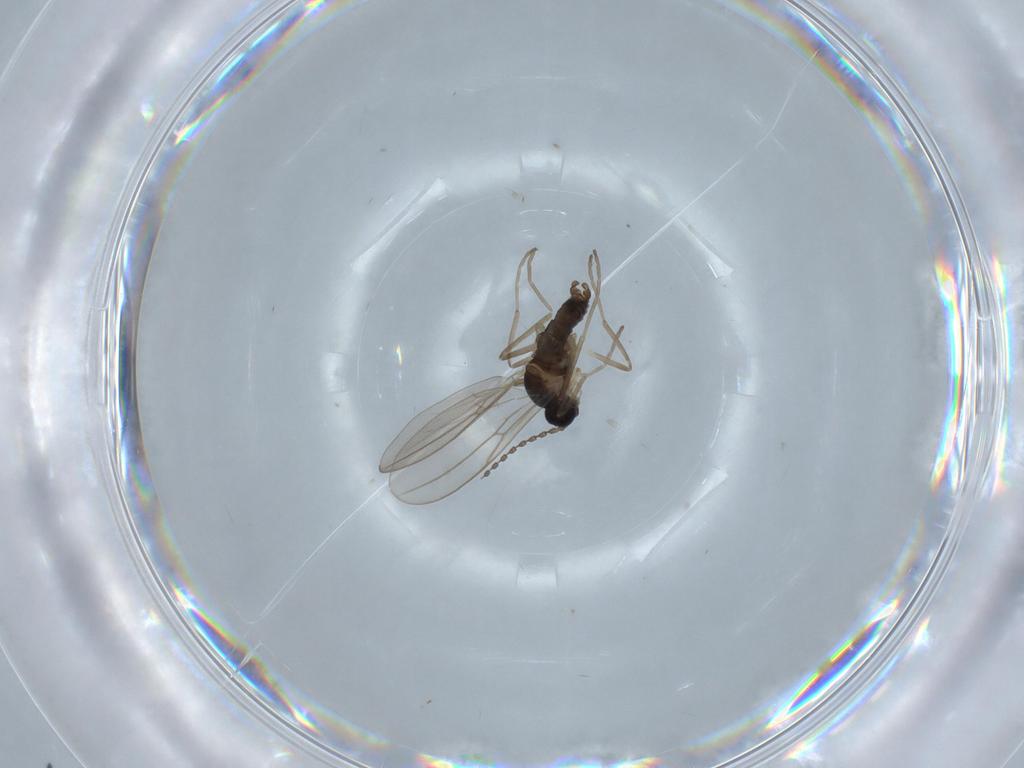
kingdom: Animalia
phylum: Arthropoda
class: Insecta
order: Diptera
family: Cecidomyiidae
